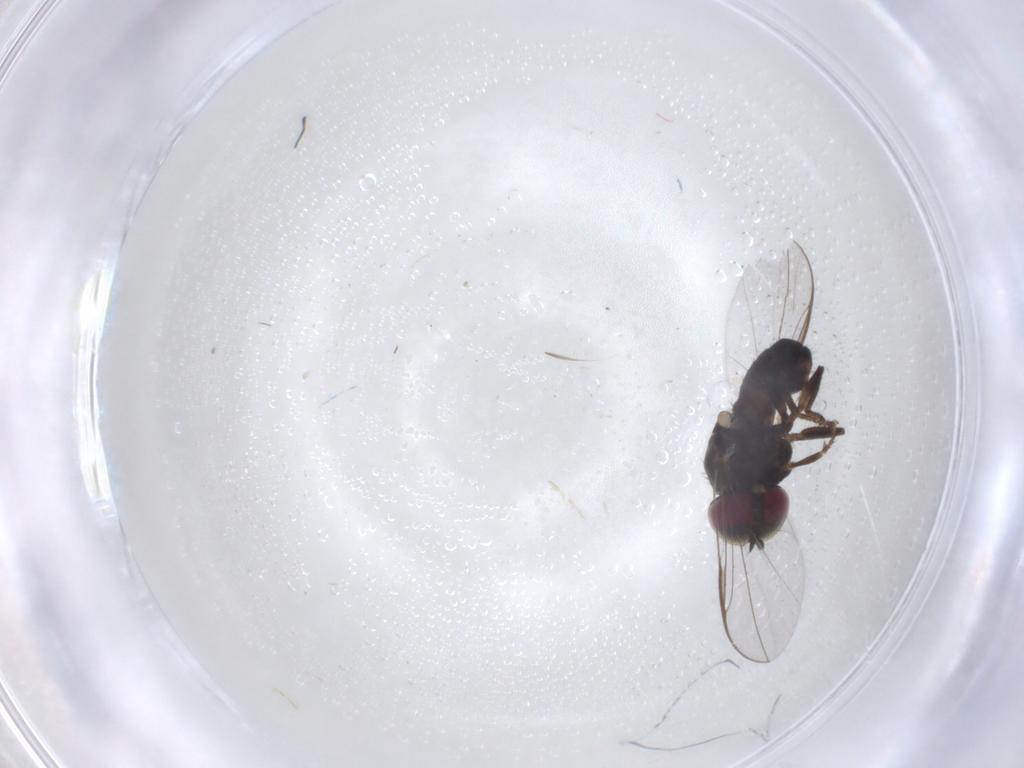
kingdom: Animalia
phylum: Arthropoda
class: Insecta
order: Diptera
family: Pipunculidae
